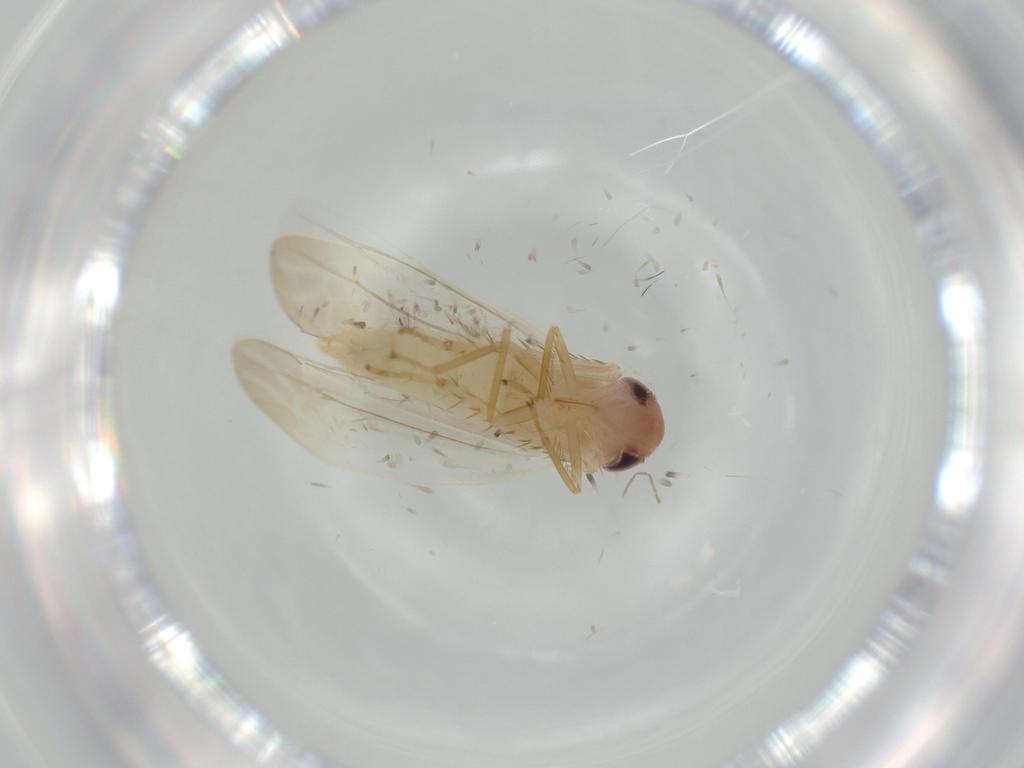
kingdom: Animalia
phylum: Arthropoda
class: Insecta
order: Hemiptera
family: Cicadellidae
